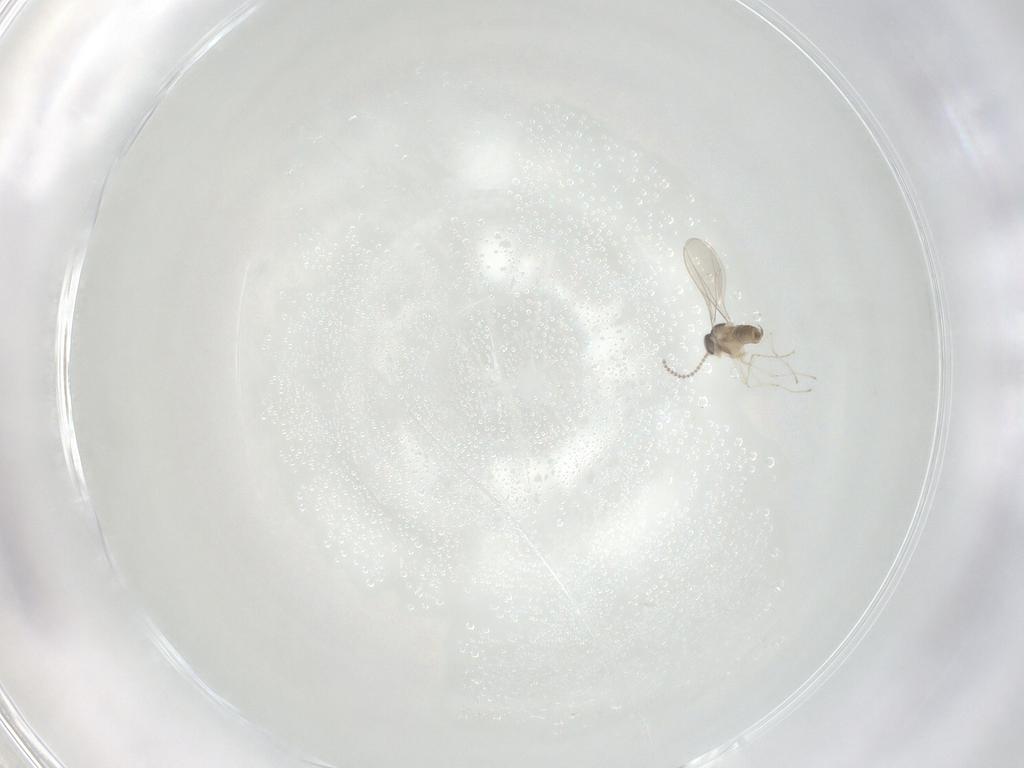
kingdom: Animalia
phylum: Arthropoda
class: Insecta
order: Diptera
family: Cecidomyiidae
